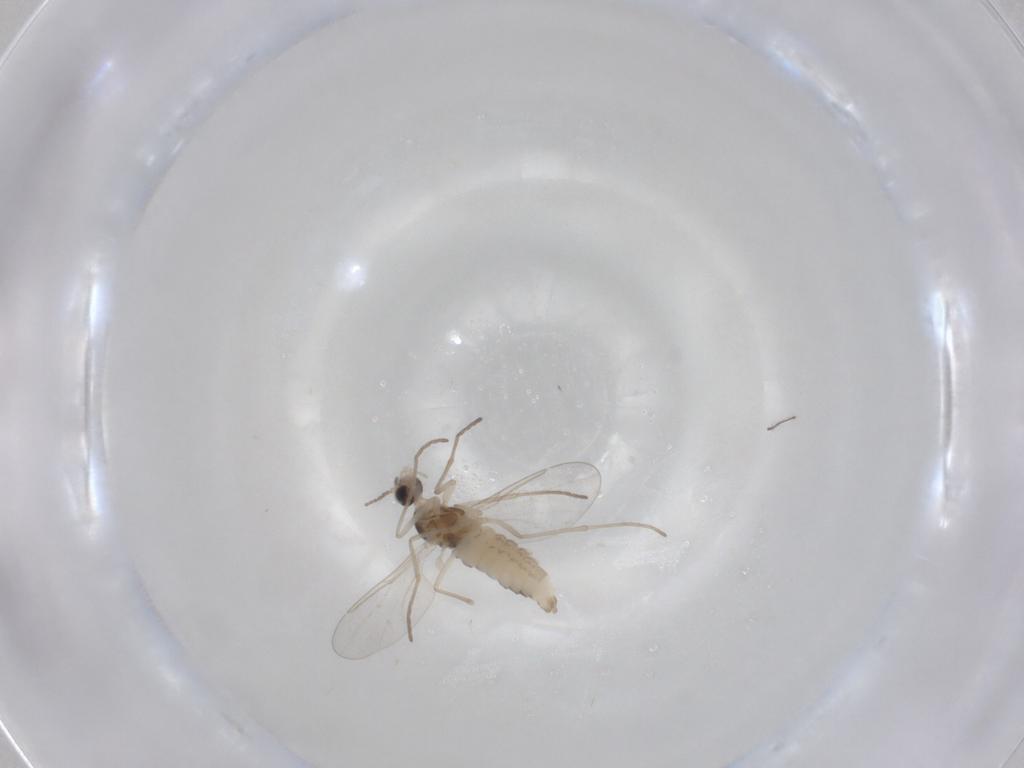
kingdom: Animalia
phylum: Arthropoda
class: Insecta
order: Diptera
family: Cecidomyiidae
